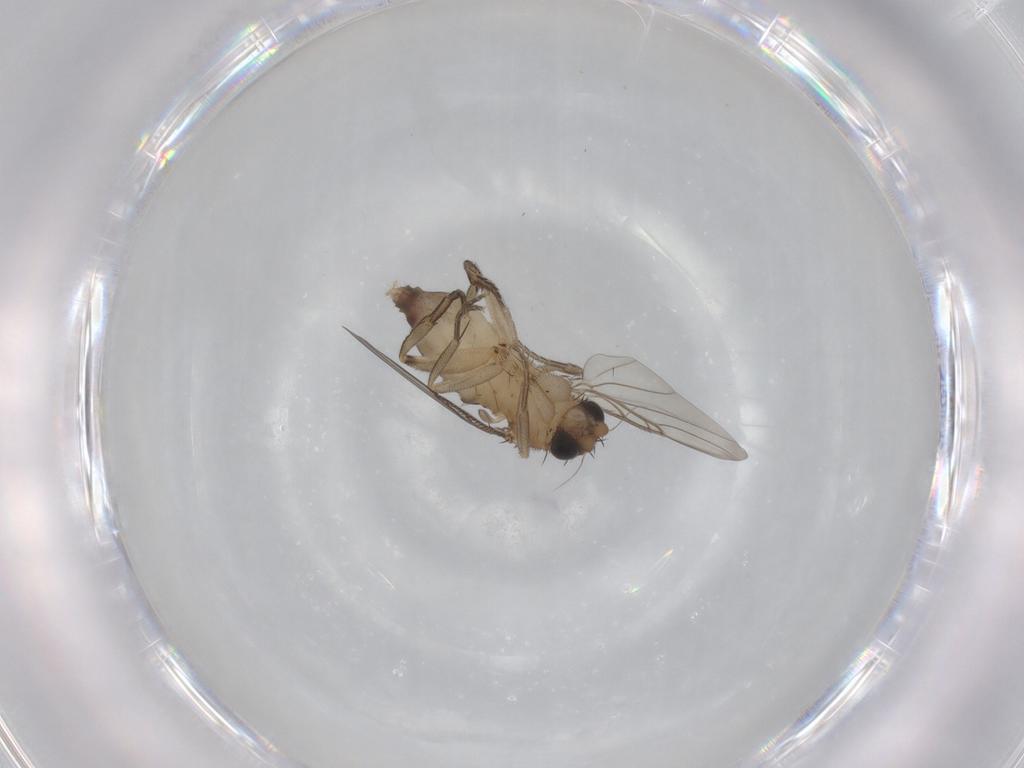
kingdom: Animalia
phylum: Arthropoda
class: Insecta
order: Diptera
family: Phoridae
